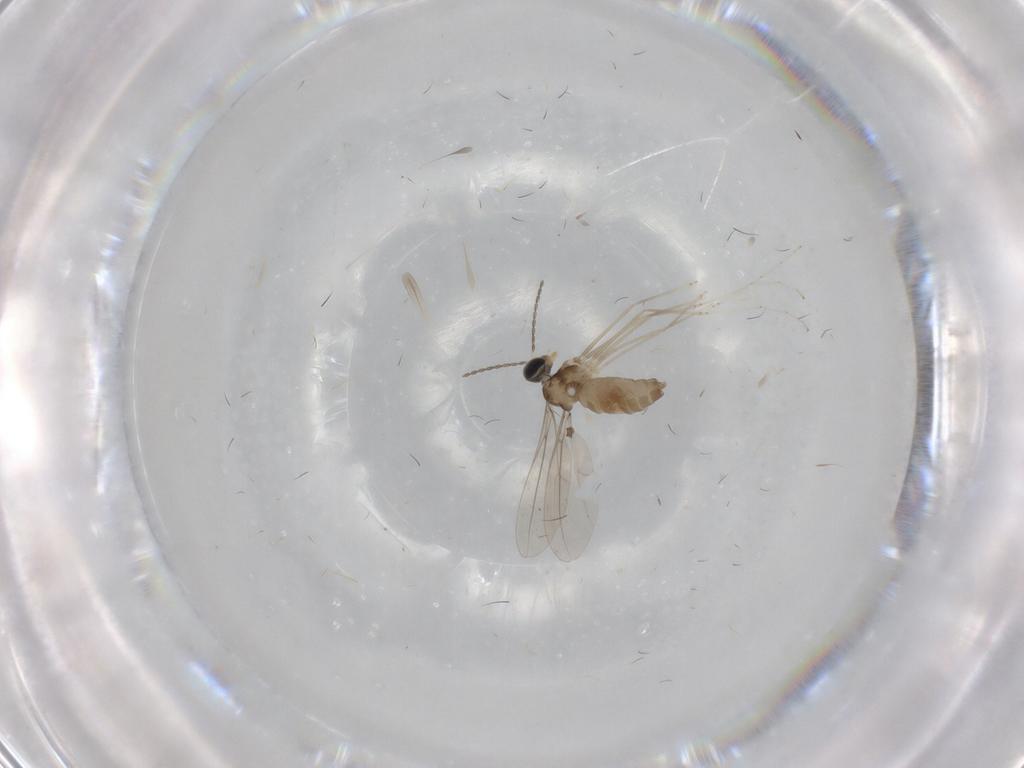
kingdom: Animalia
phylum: Arthropoda
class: Insecta
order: Diptera
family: Cecidomyiidae
